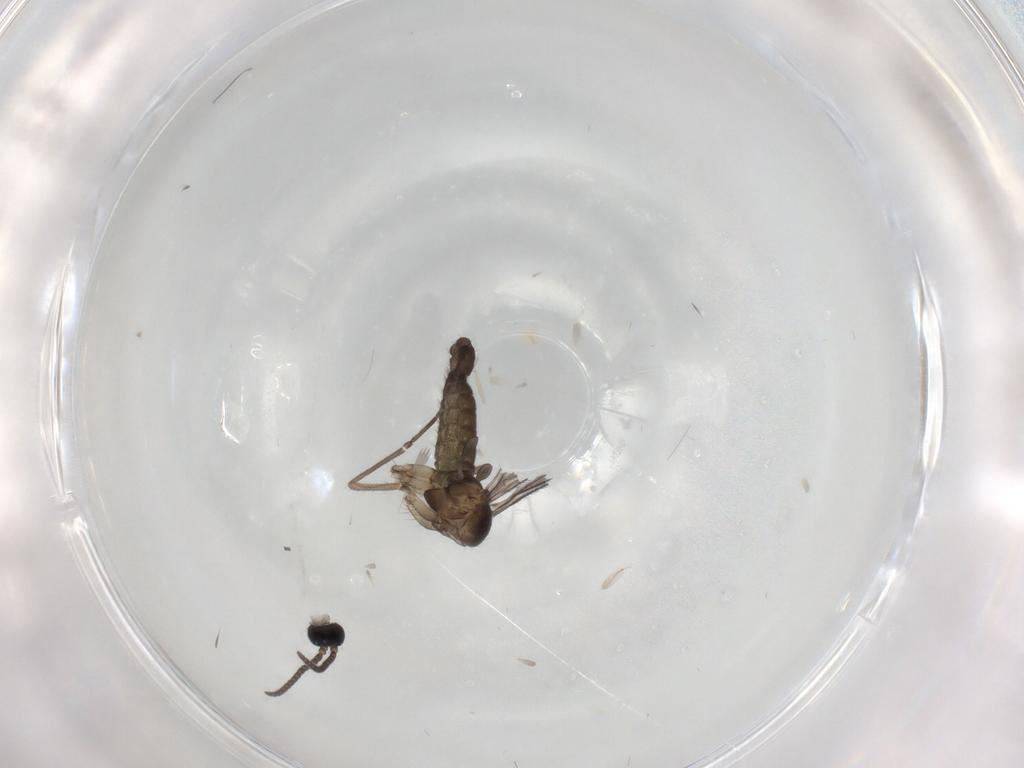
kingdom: Animalia
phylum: Arthropoda
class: Insecta
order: Diptera
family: Sciaridae
